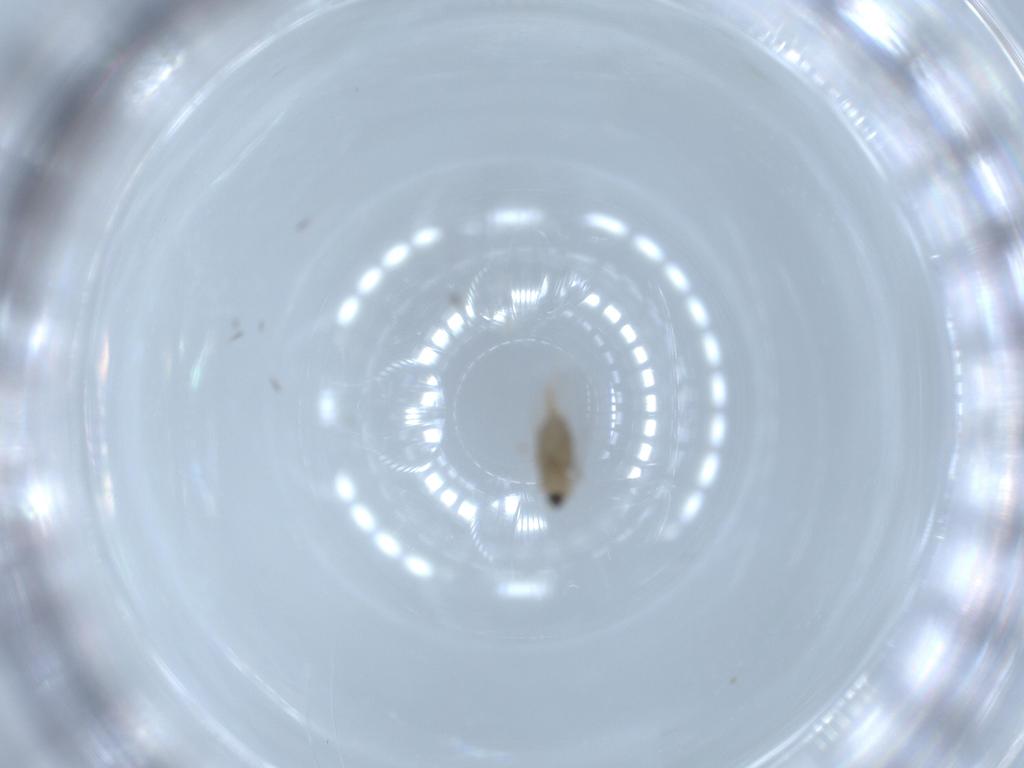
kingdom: Animalia
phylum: Arthropoda
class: Insecta
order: Diptera
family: Cecidomyiidae
